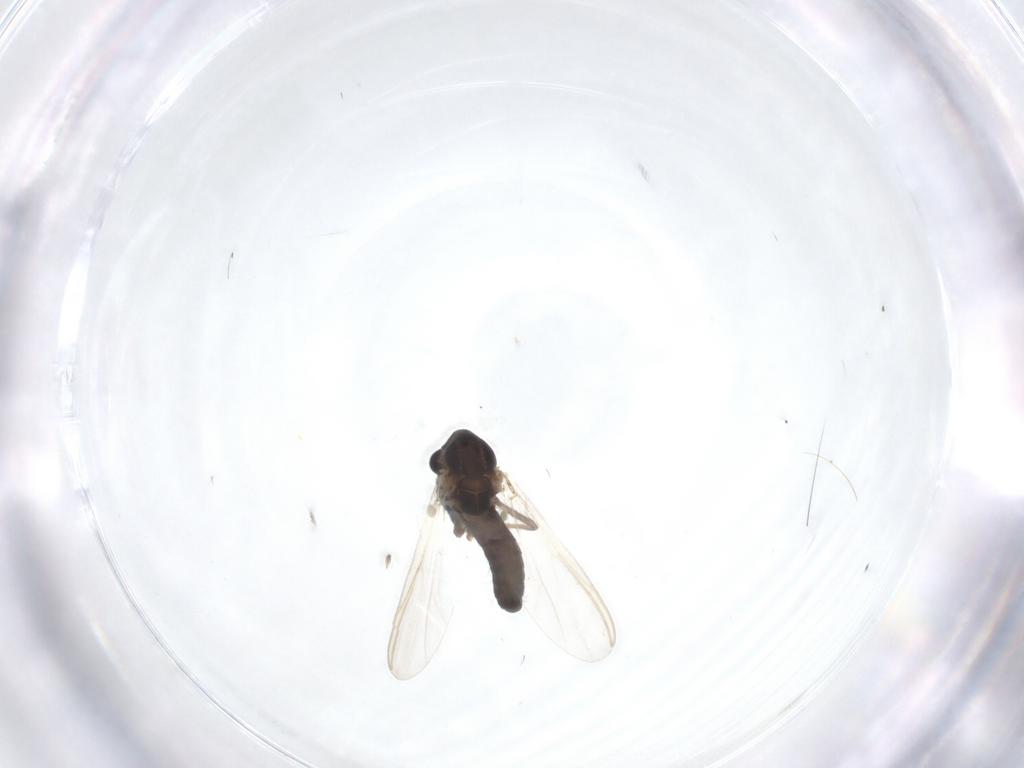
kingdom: Animalia
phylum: Arthropoda
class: Insecta
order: Diptera
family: Chironomidae
